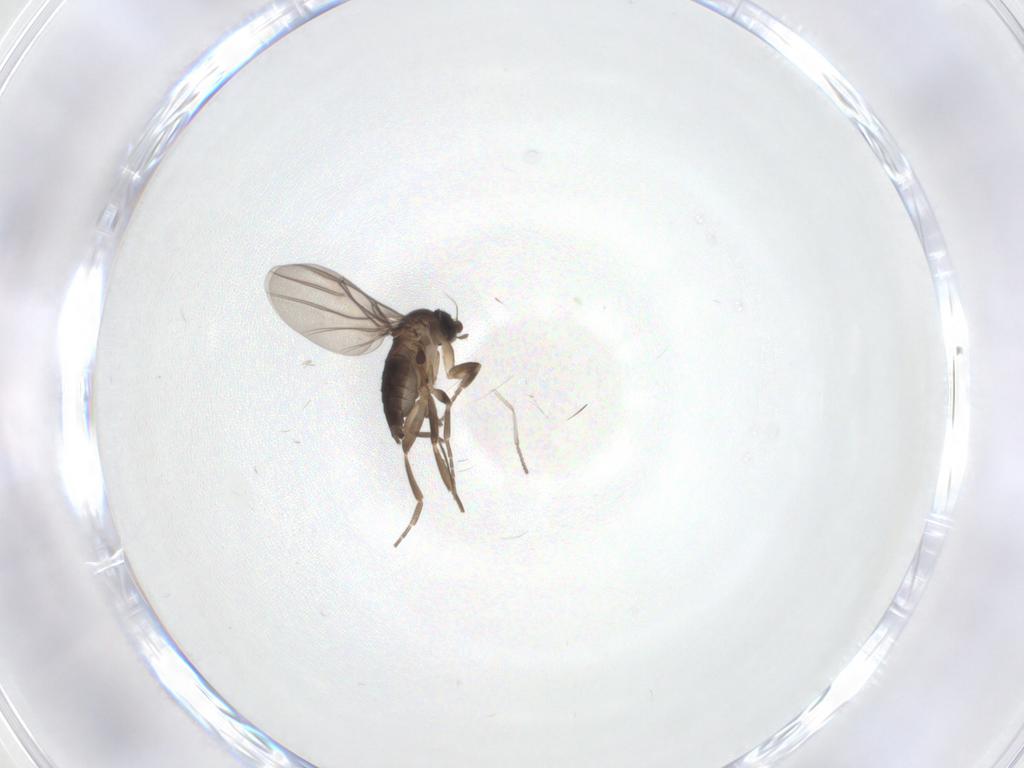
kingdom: Animalia
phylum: Arthropoda
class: Insecta
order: Diptera
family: Psychodidae
